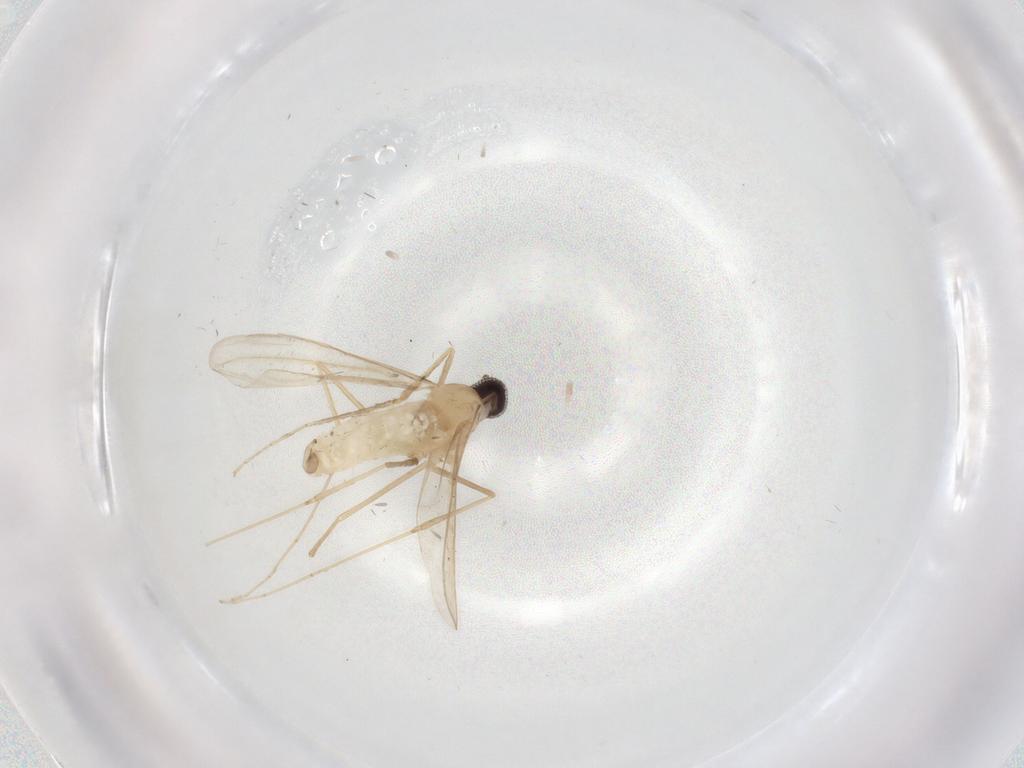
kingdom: Animalia
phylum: Arthropoda
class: Insecta
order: Diptera
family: Cecidomyiidae
